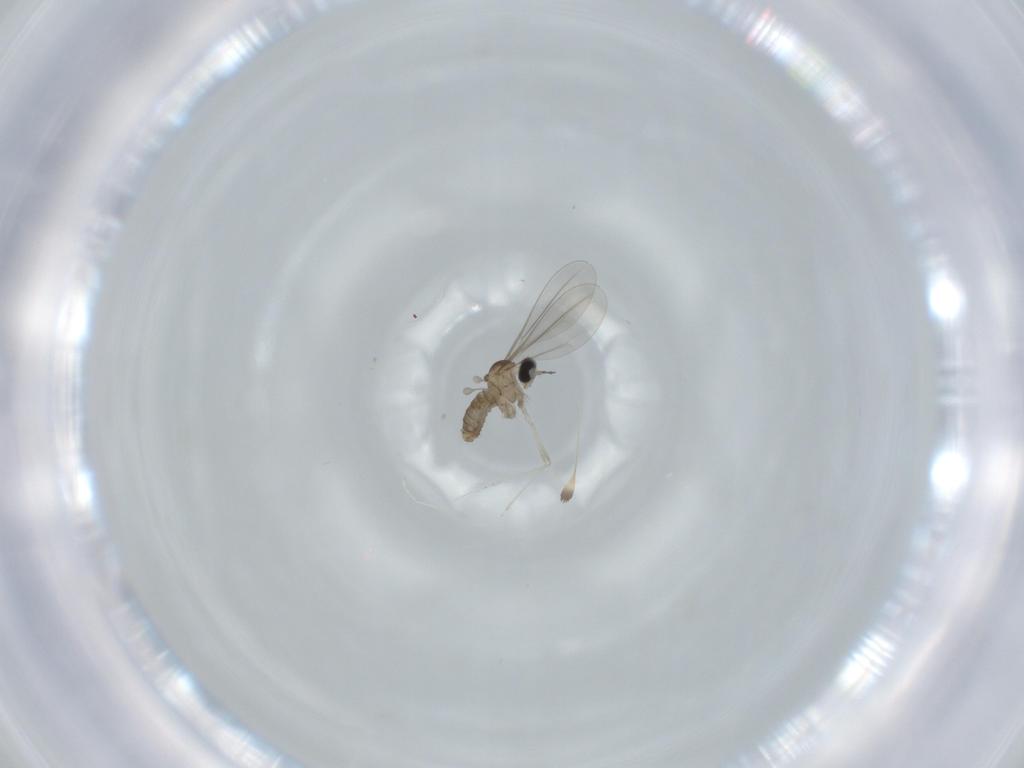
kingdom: Animalia
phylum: Arthropoda
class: Insecta
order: Diptera
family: Cecidomyiidae
